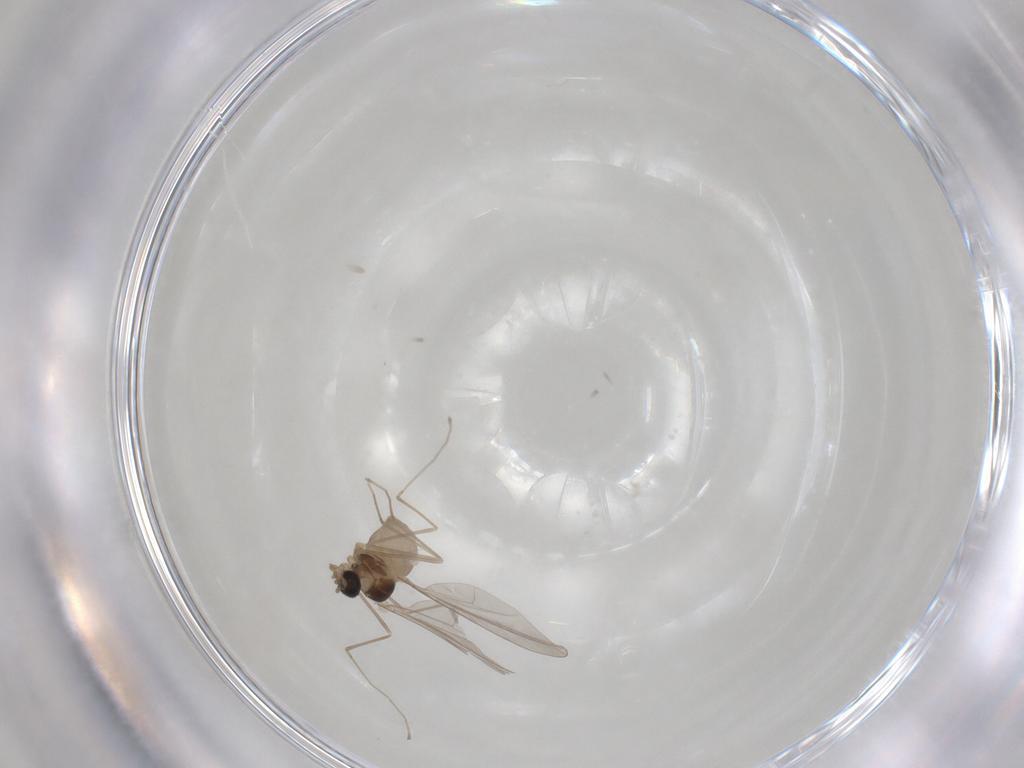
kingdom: Animalia
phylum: Arthropoda
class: Insecta
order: Diptera
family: Cecidomyiidae
